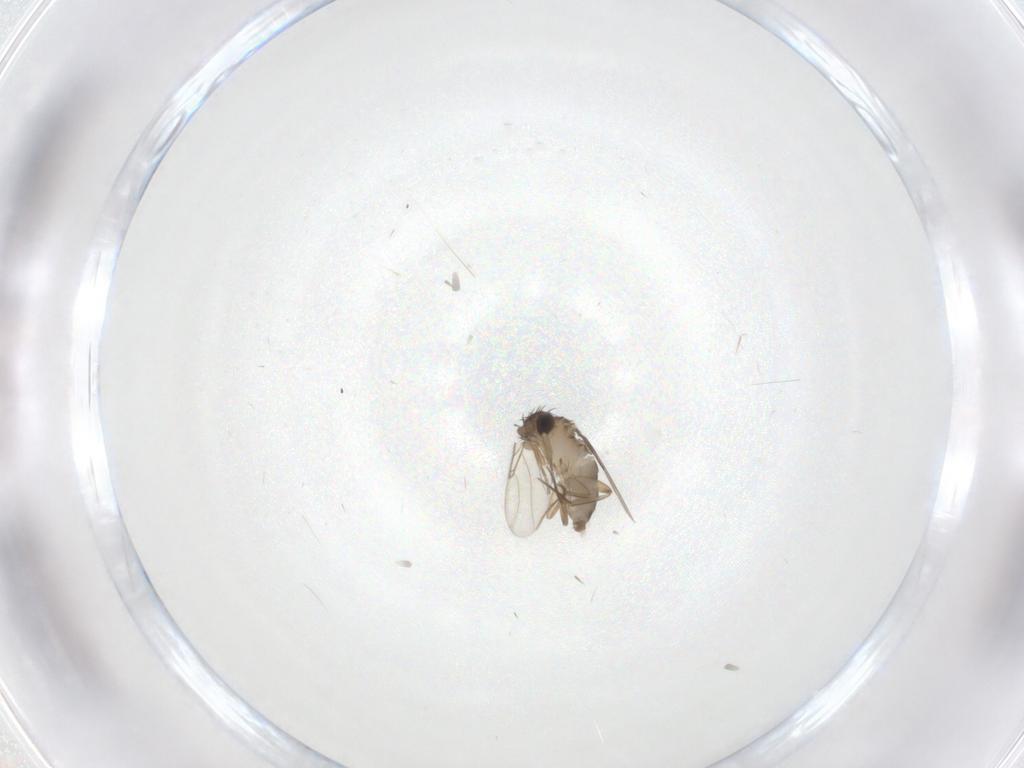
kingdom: Animalia
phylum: Arthropoda
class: Insecta
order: Diptera
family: Phoridae
